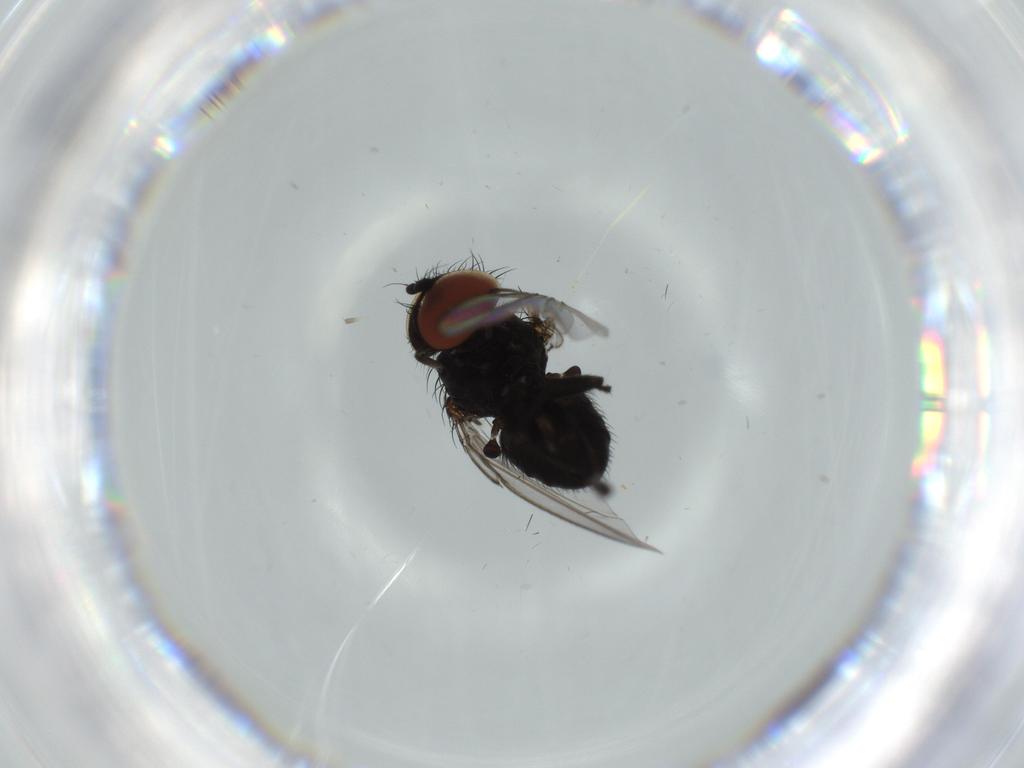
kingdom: Animalia
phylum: Arthropoda
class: Insecta
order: Diptera
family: Milichiidae
